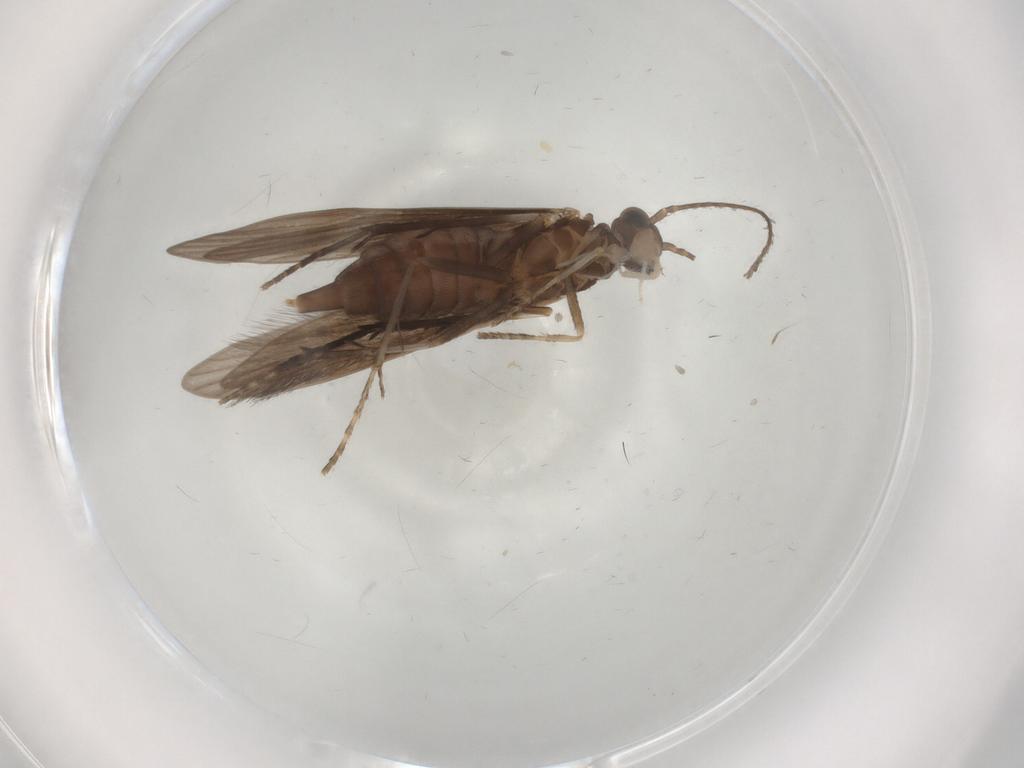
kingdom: Animalia
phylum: Arthropoda
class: Insecta
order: Trichoptera
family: Xiphocentronidae
